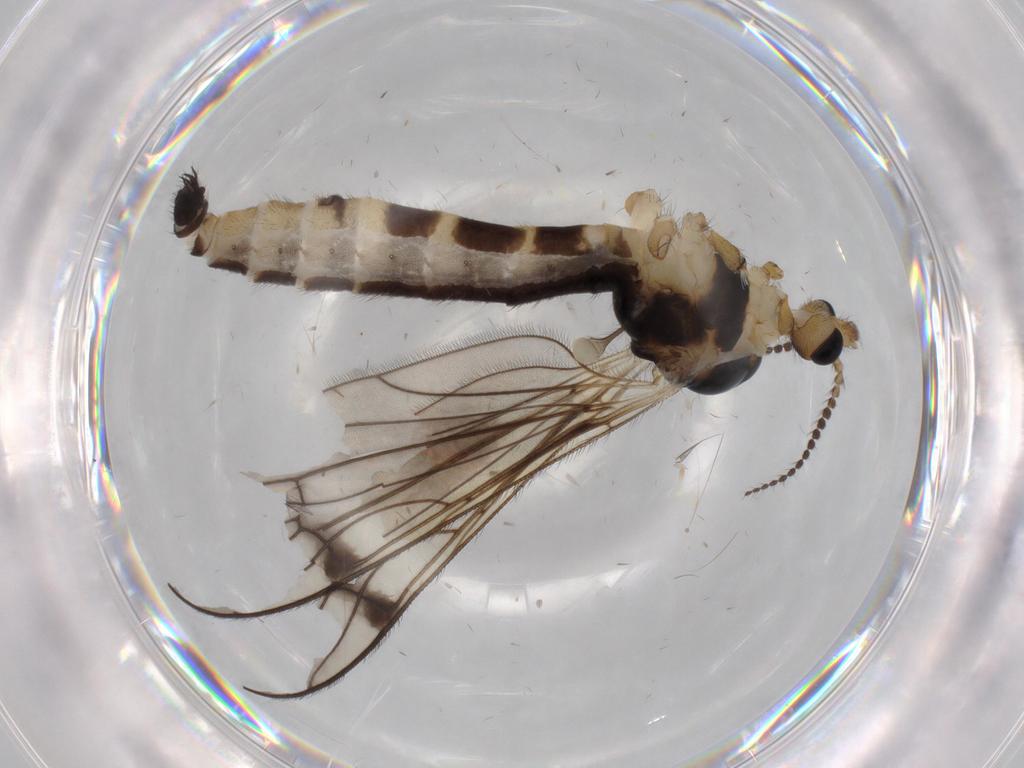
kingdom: Animalia
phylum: Arthropoda
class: Insecta
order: Diptera
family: Limoniidae
